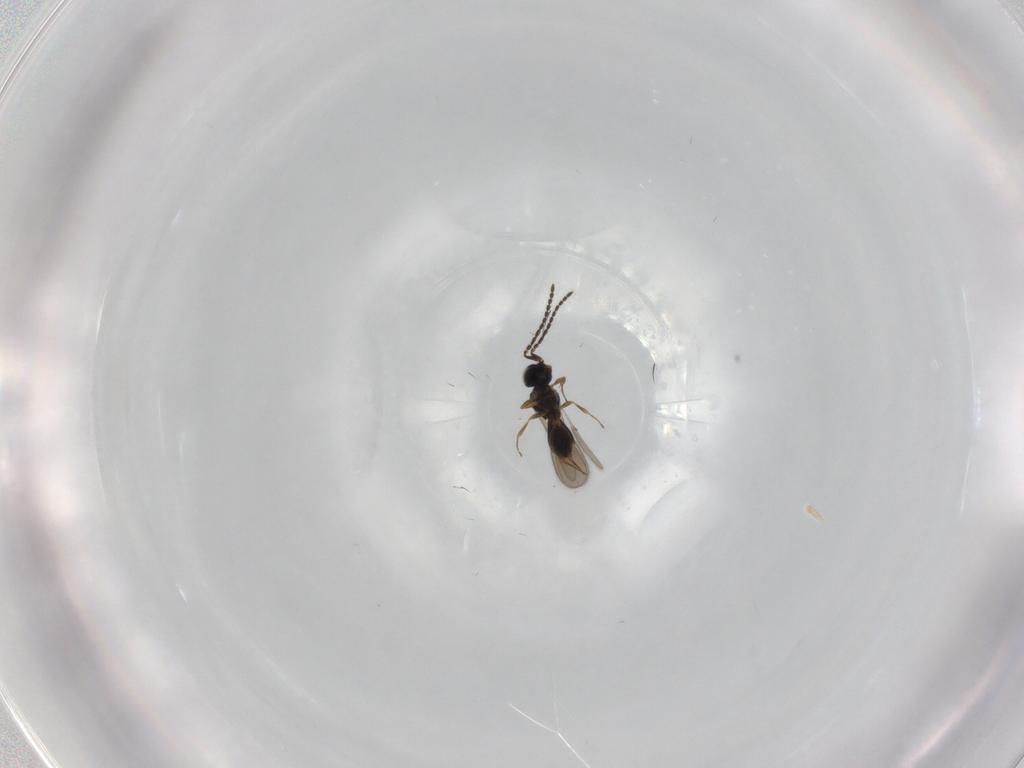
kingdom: Animalia
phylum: Arthropoda
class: Insecta
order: Hymenoptera
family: Scelionidae
